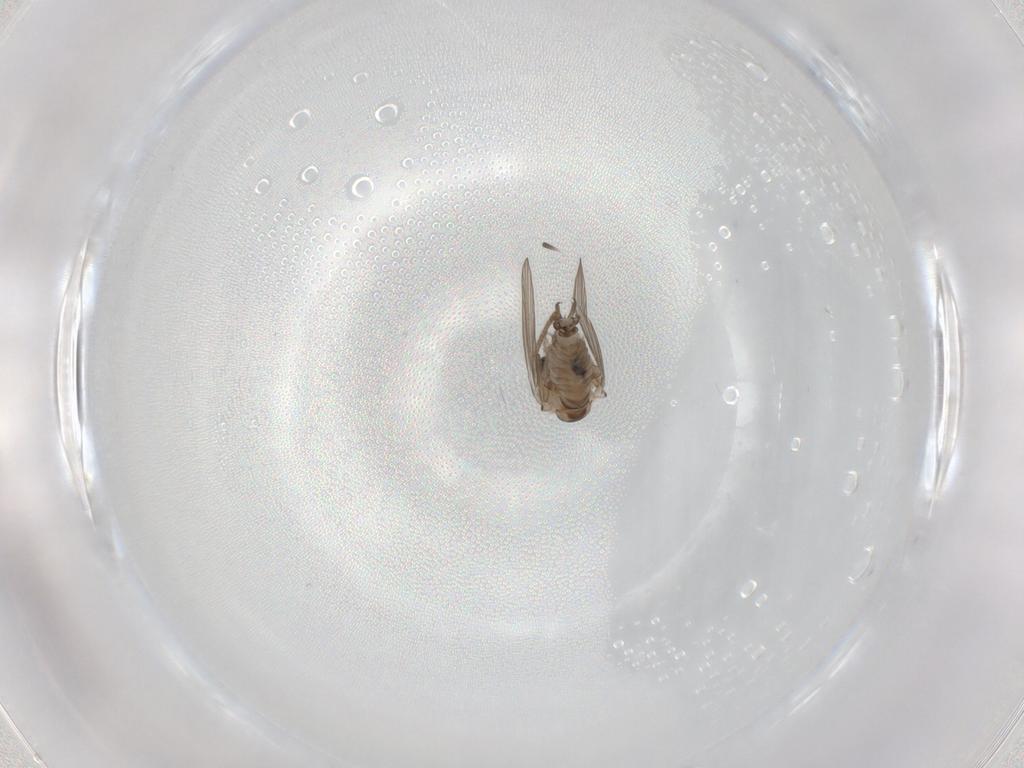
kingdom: Animalia
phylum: Arthropoda
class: Insecta
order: Diptera
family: Psychodidae
